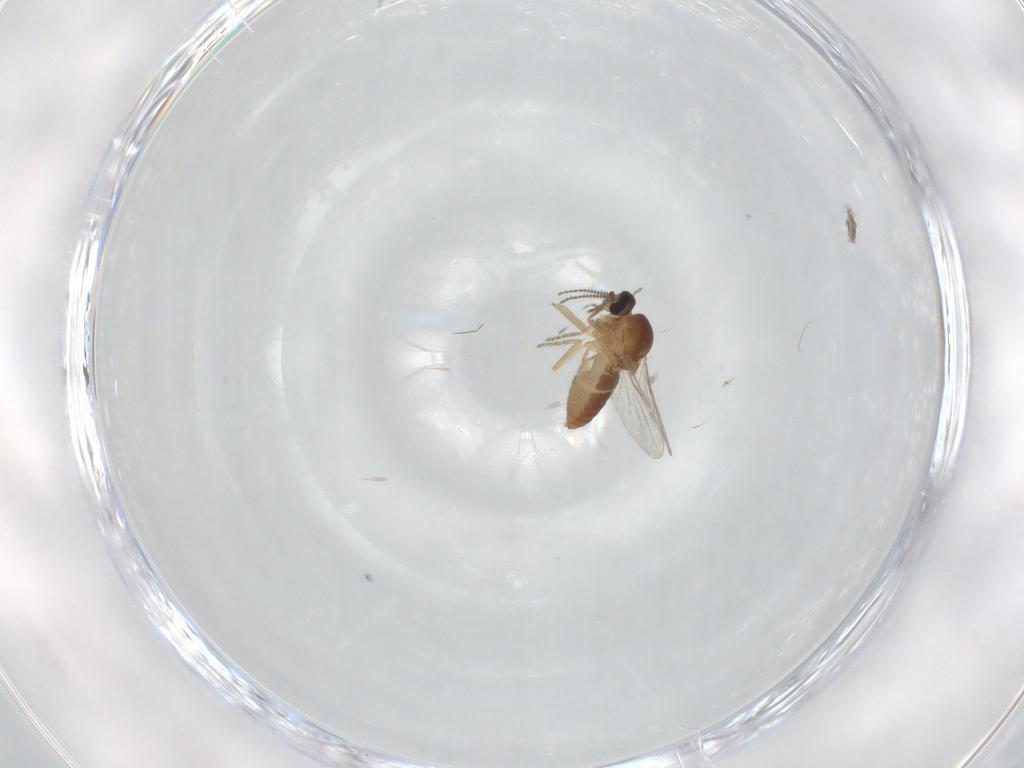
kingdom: Animalia
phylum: Arthropoda
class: Insecta
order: Diptera
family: Ceratopogonidae
